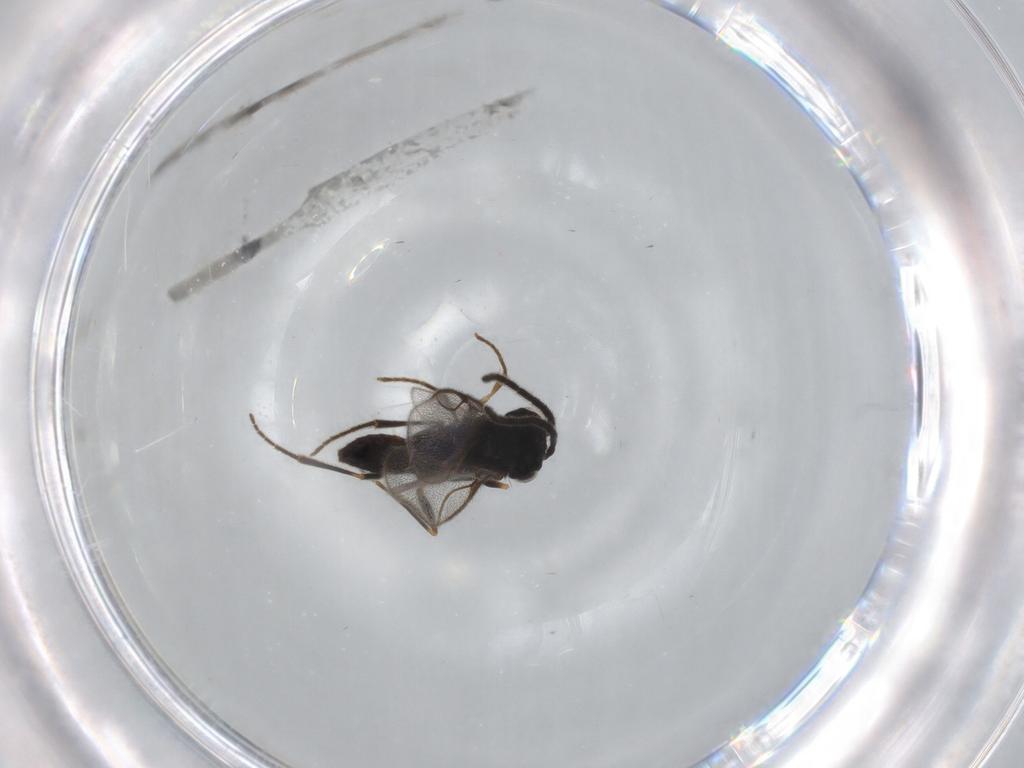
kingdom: Animalia
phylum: Arthropoda
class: Insecta
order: Hymenoptera
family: Dryinidae
